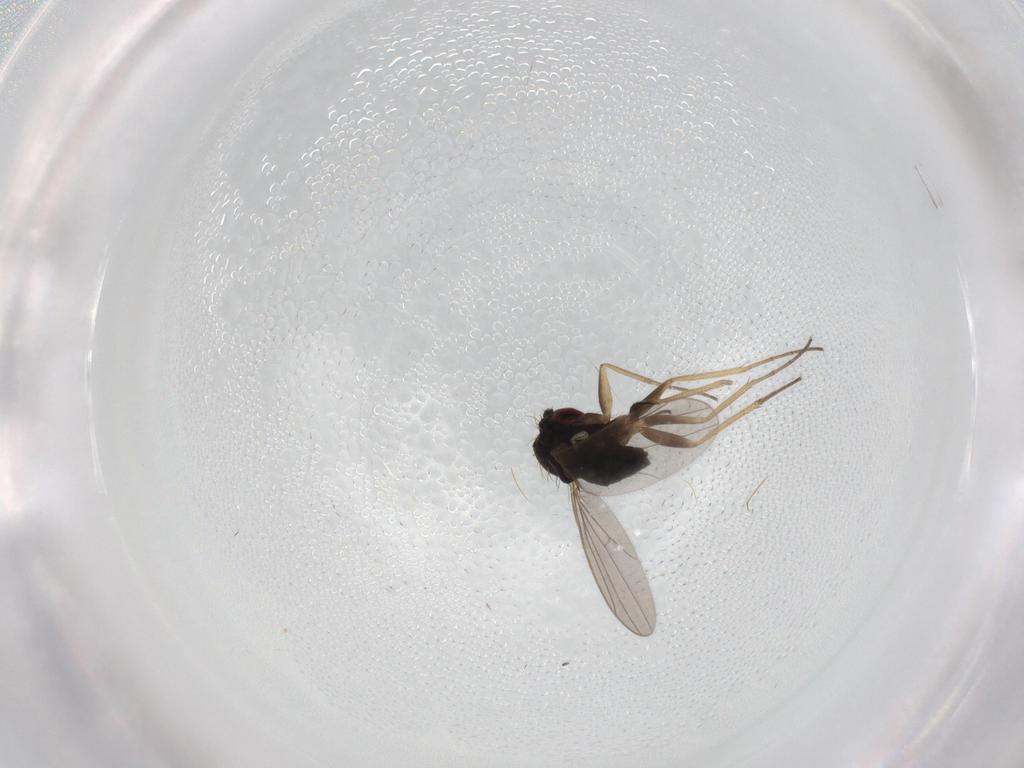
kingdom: Animalia
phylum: Arthropoda
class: Insecta
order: Diptera
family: Dolichopodidae
